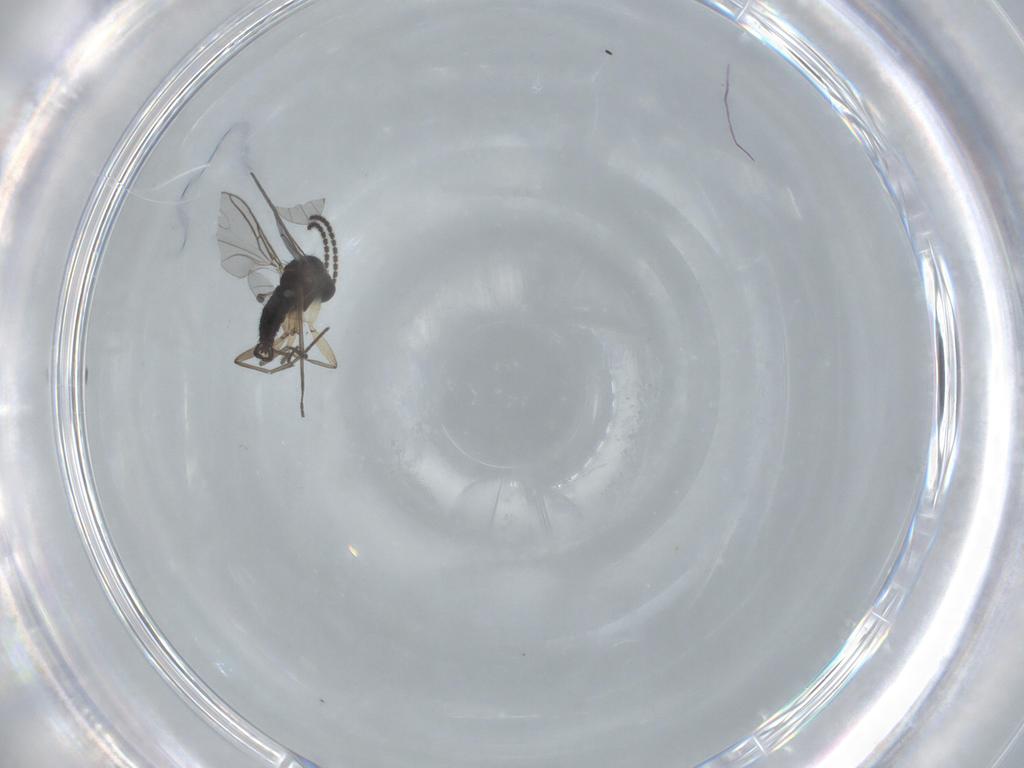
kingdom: Animalia
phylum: Arthropoda
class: Insecta
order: Diptera
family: Sciaridae
